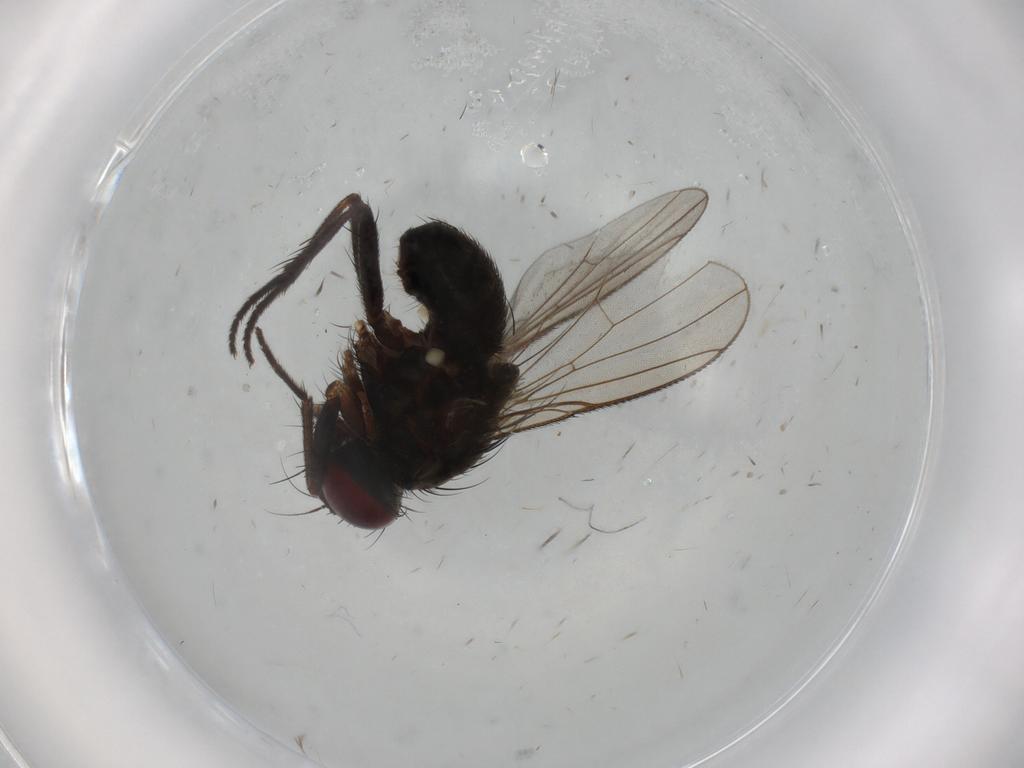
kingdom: Animalia
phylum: Arthropoda
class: Insecta
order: Diptera
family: Muscidae
